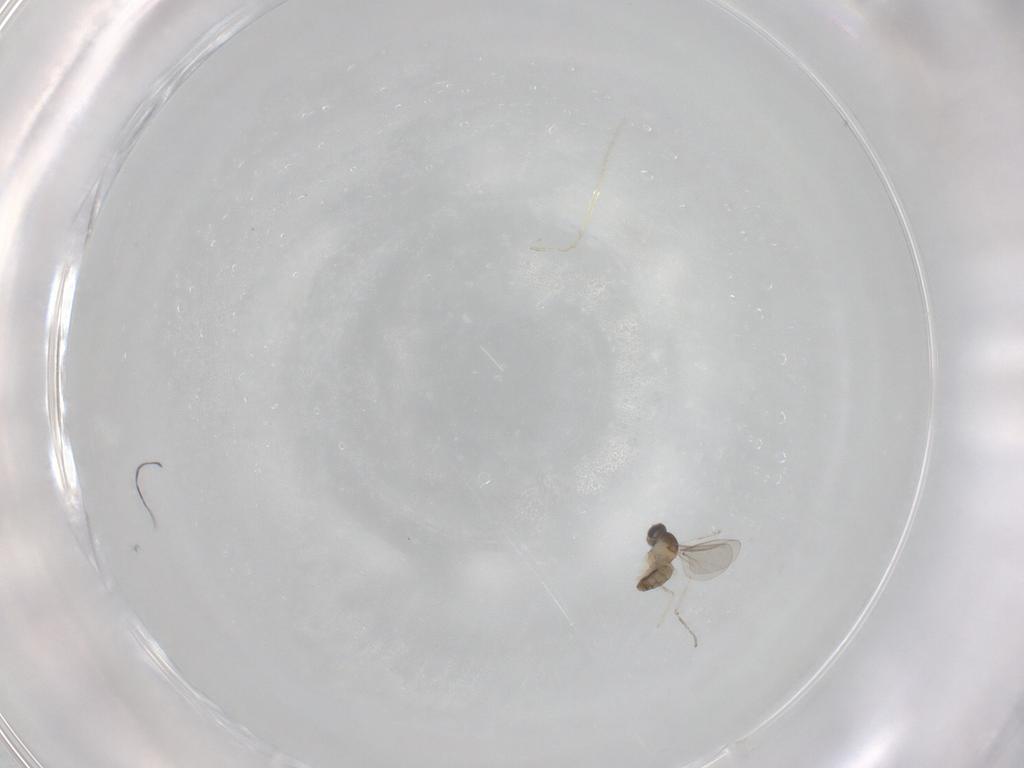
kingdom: Animalia
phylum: Arthropoda
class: Insecta
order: Diptera
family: Cecidomyiidae
